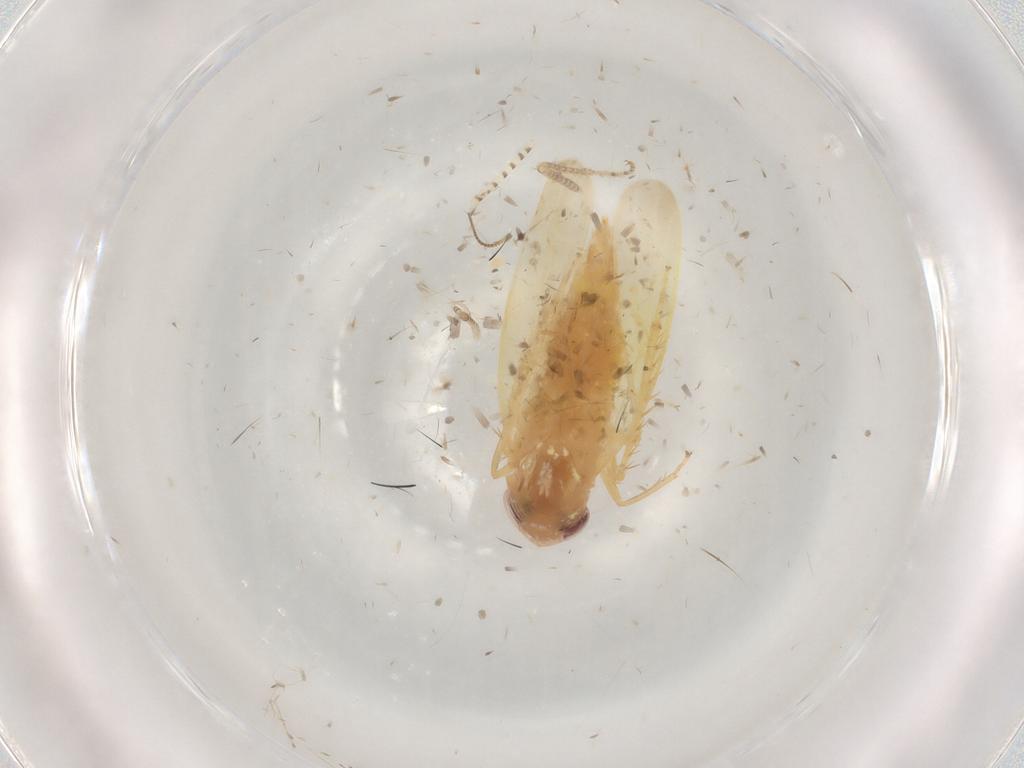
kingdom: Animalia
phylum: Arthropoda
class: Insecta
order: Hemiptera
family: Cicadellidae
